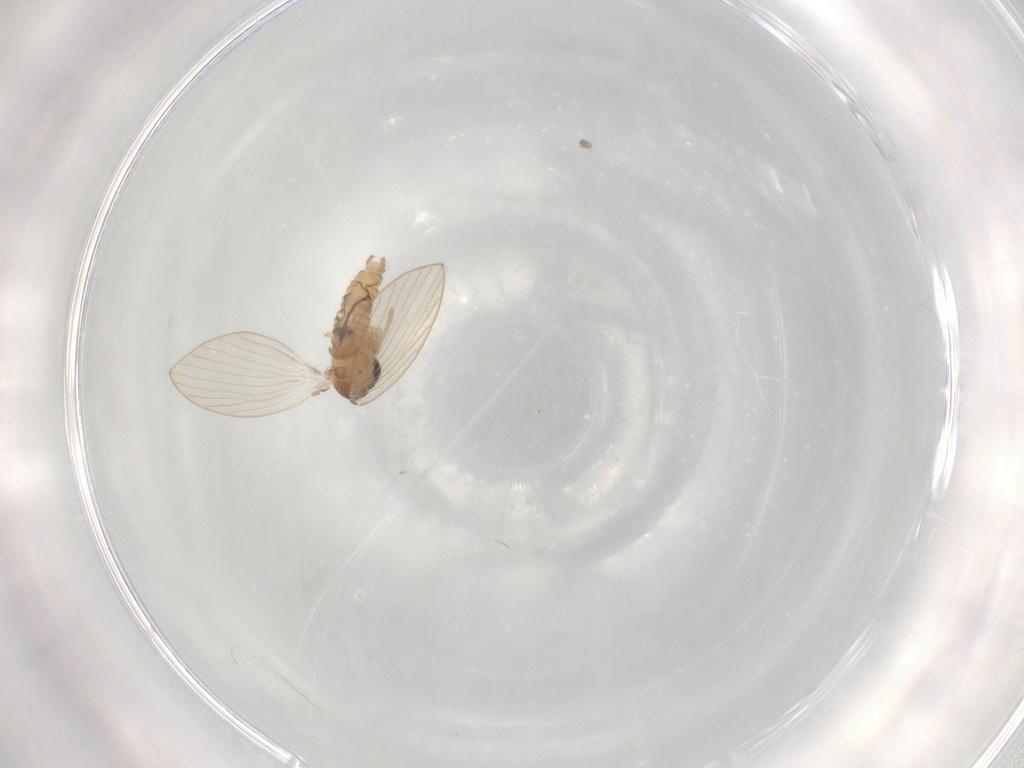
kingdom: Animalia
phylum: Arthropoda
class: Insecta
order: Diptera
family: Psychodidae
